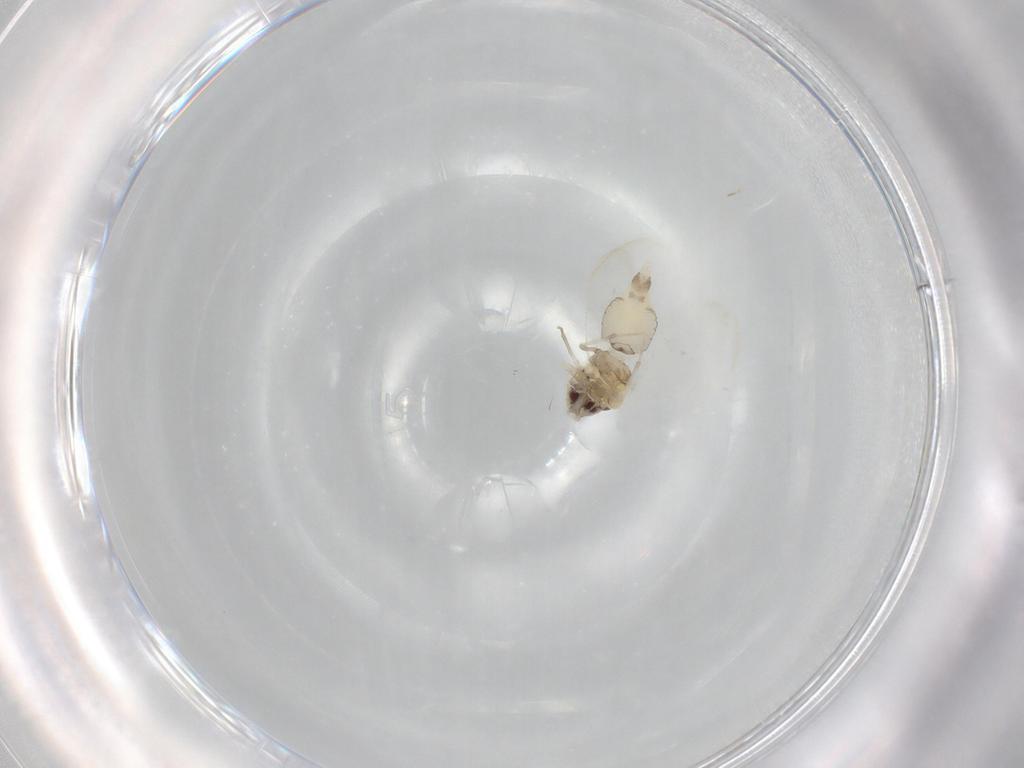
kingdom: Animalia
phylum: Arthropoda
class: Insecta
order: Hemiptera
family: Aleyrodidae
